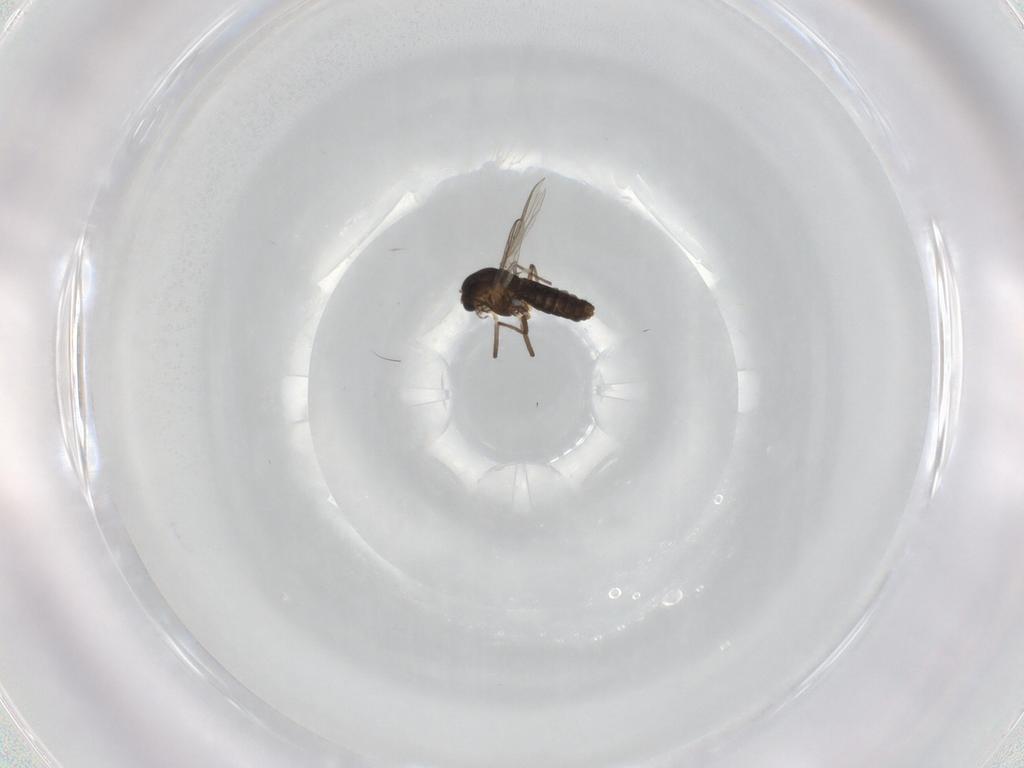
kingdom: Animalia
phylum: Arthropoda
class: Insecta
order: Diptera
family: Chironomidae
